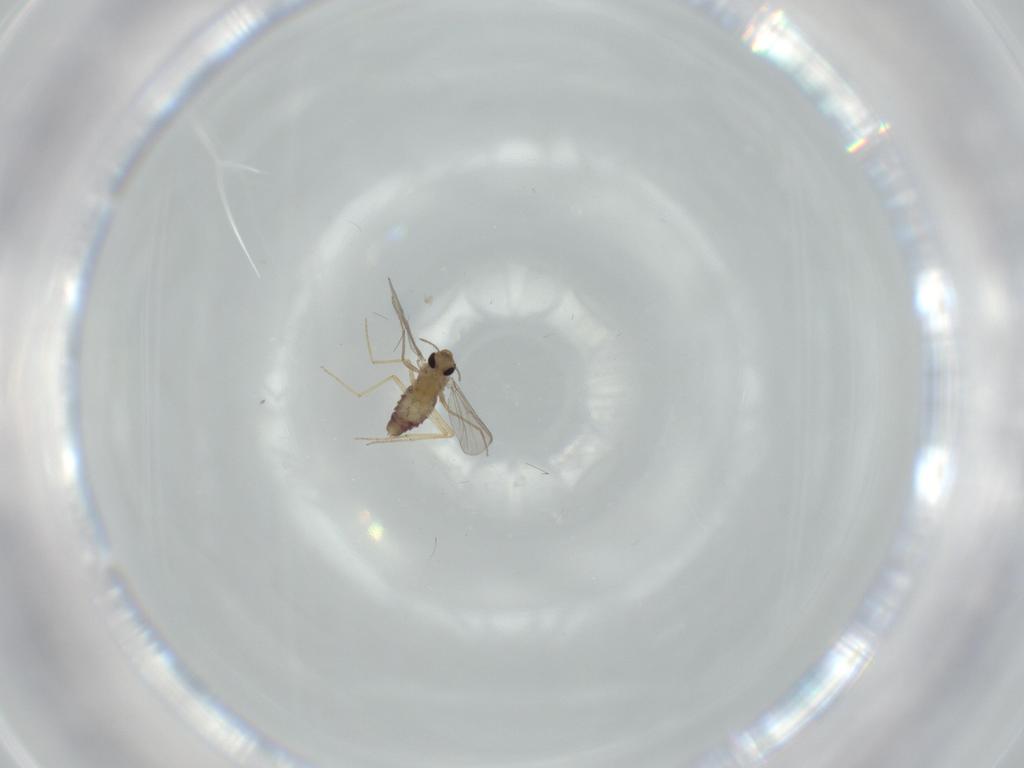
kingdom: Animalia
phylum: Arthropoda
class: Insecta
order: Diptera
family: Chironomidae
